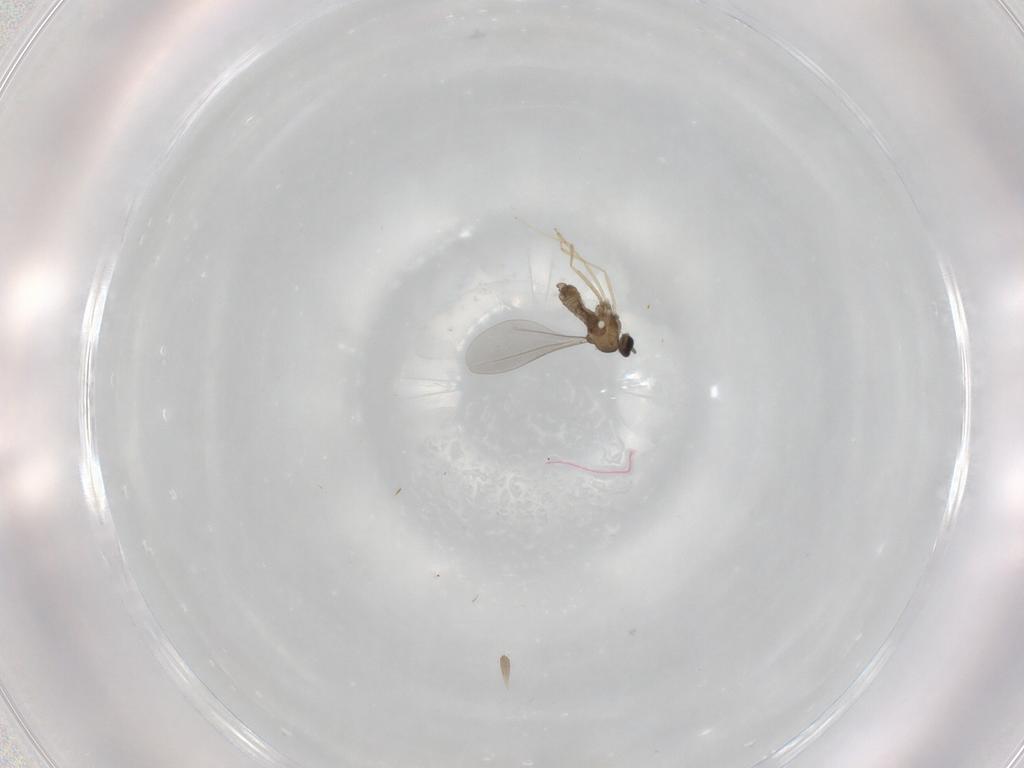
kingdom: Animalia
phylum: Arthropoda
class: Insecta
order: Diptera
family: Cecidomyiidae
